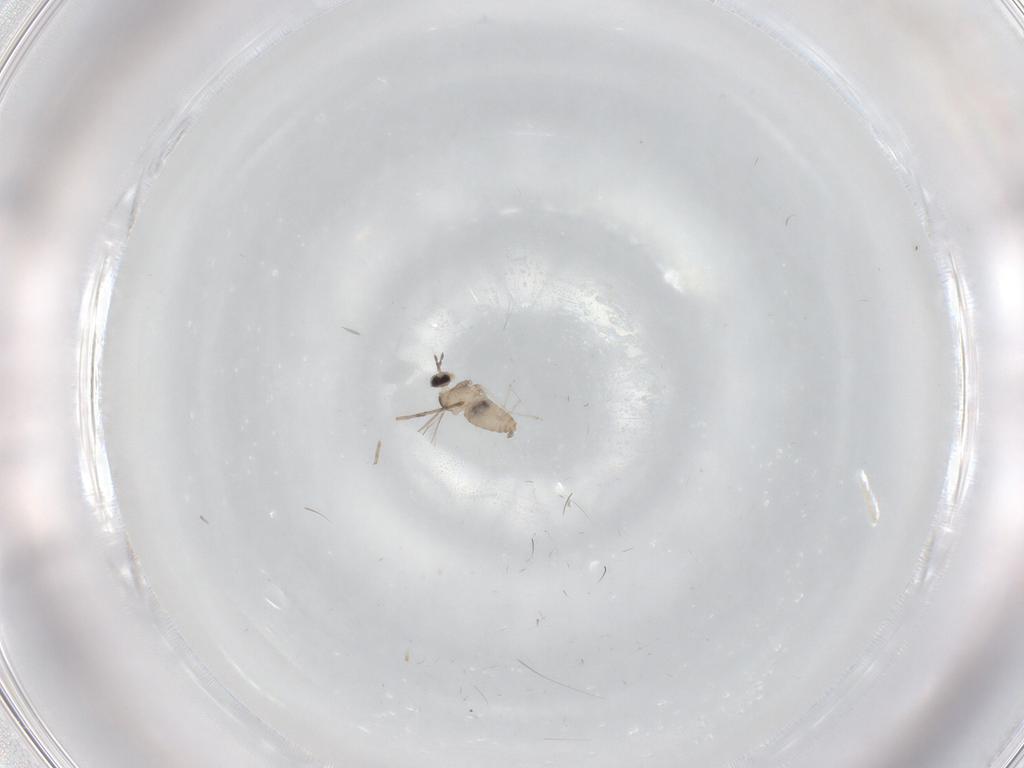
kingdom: Animalia
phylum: Arthropoda
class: Insecta
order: Diptera
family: Cecidomyiidae
